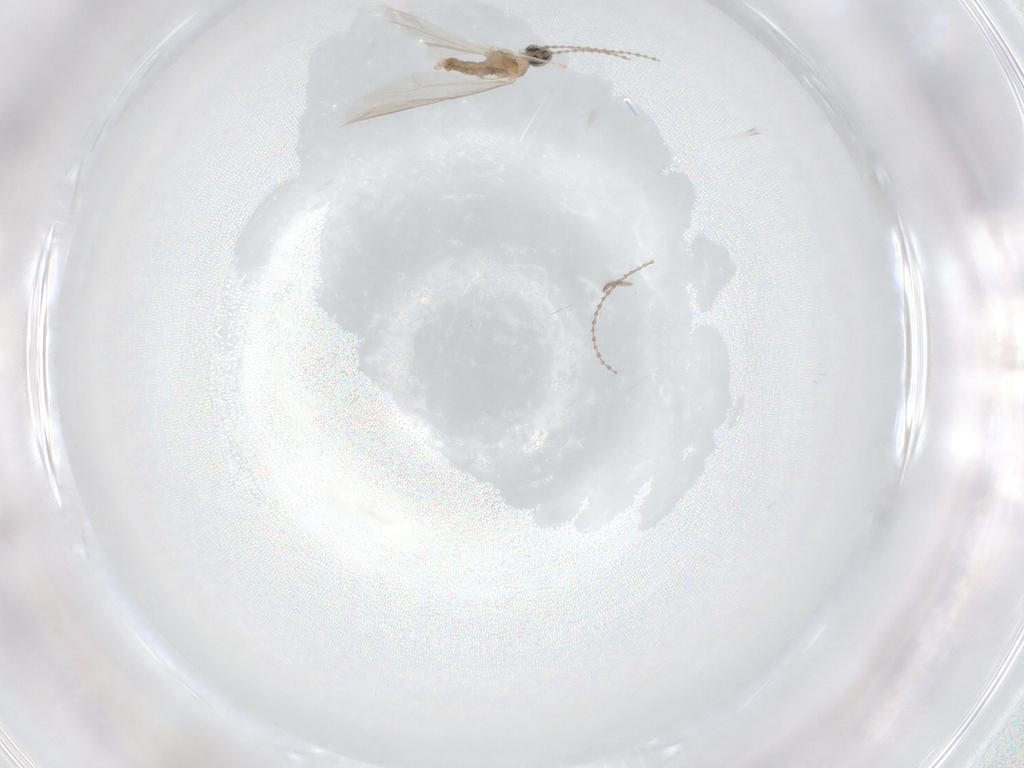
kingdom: Animalia
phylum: Arthropoda
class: Insecta
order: Diptera
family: Cecidomyiidae
